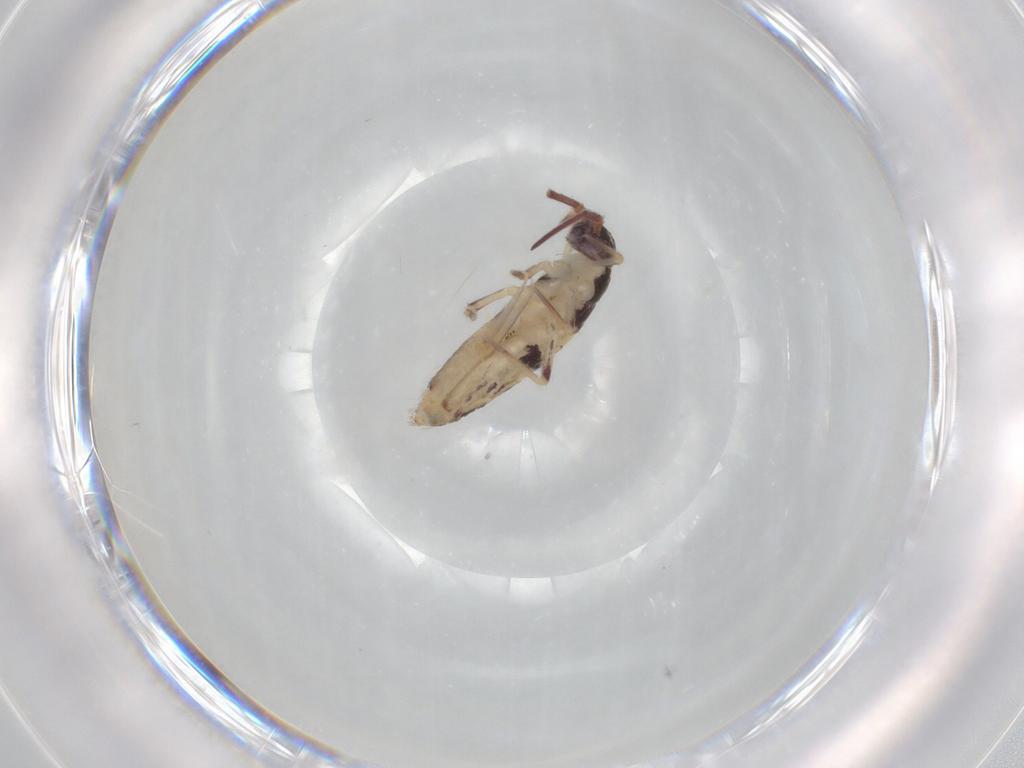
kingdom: Animalia
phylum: Arthropoda
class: Collembola
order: Entomobryomorpha
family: Entomobryidae
